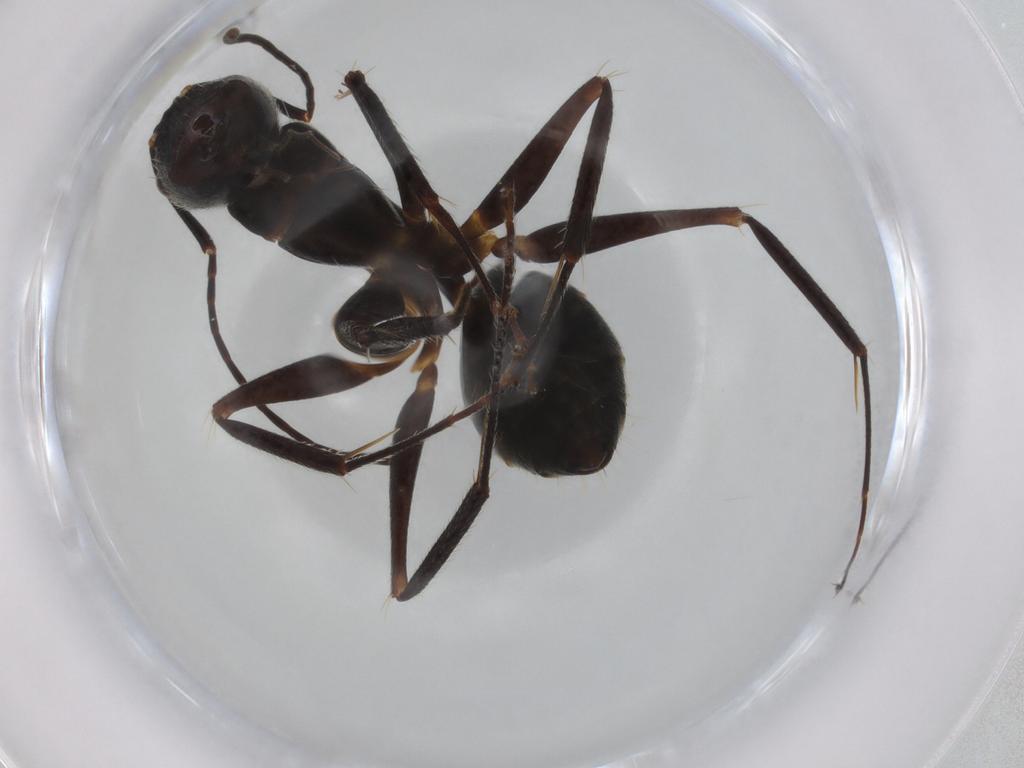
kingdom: Animalia
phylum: Arthropoda
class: Insecta
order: Hymenoptera
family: Formicidae
